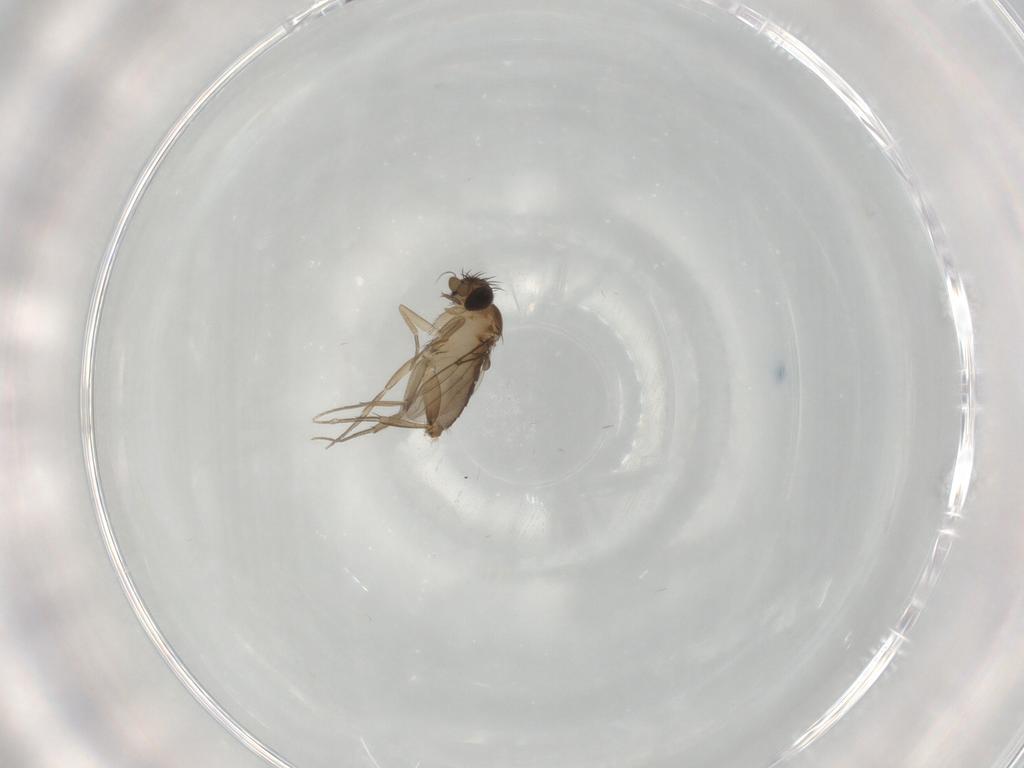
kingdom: Animalia
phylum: Arthropoda
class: Insecta
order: Diptera
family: Phoridae
